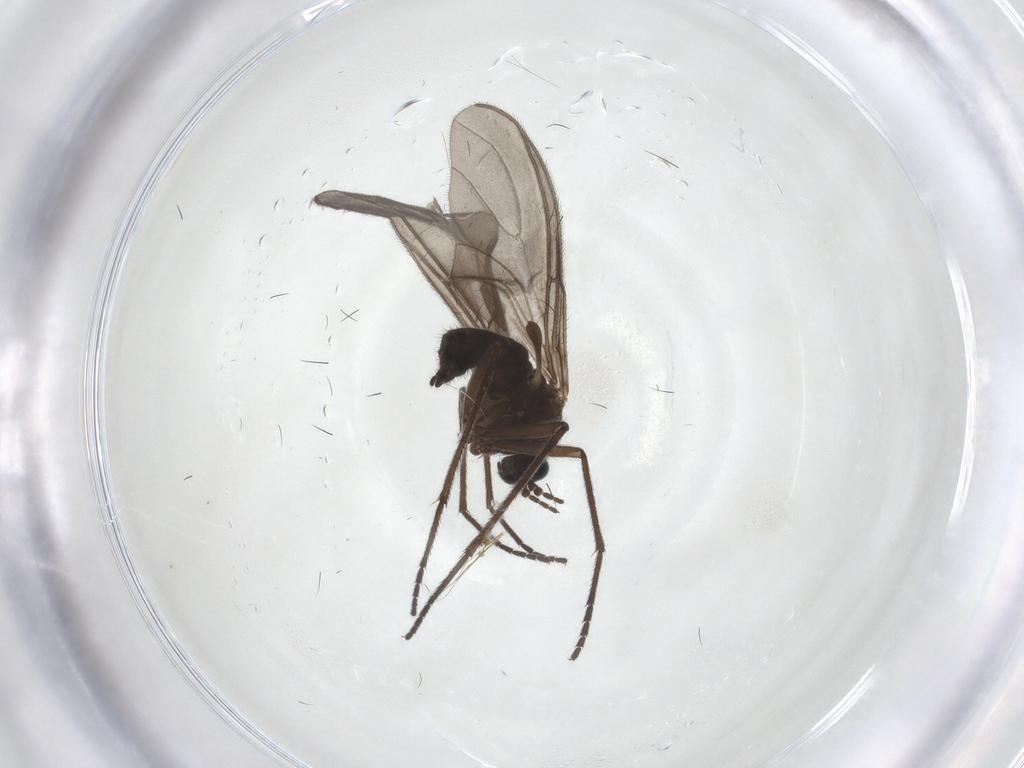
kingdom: Animalia
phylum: Arthropoda
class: Insecta
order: Diptera
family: Sciaridae
